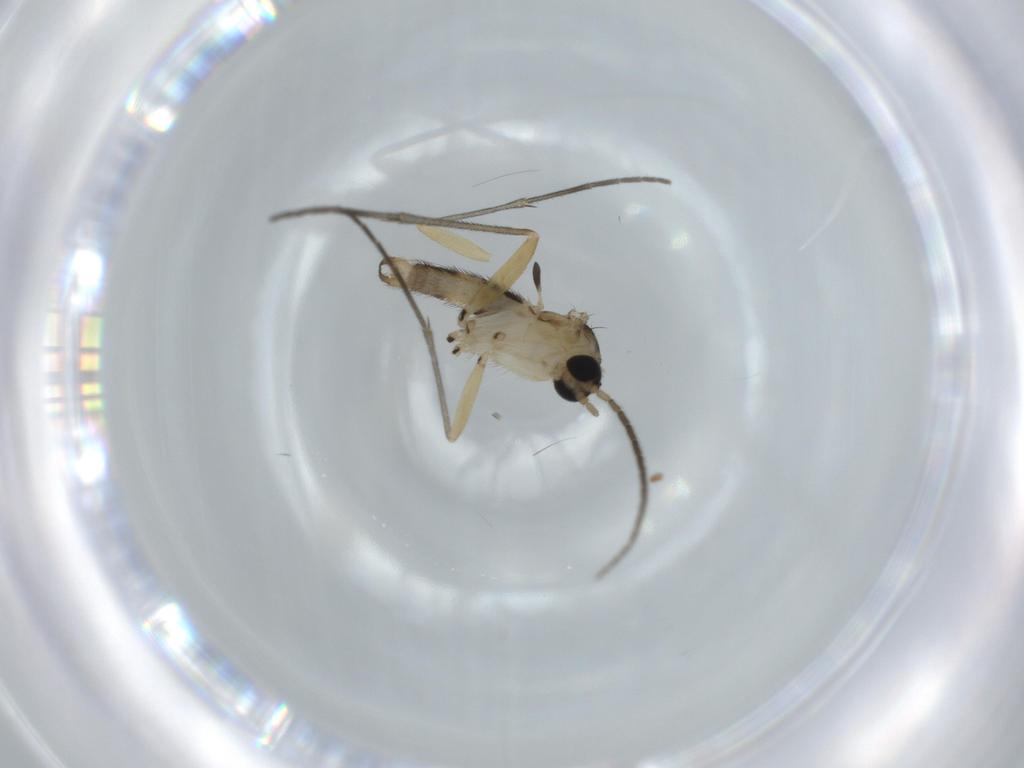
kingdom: Animalia
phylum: Arthropoda
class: Insecta
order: Diptera
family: Sciaridae
